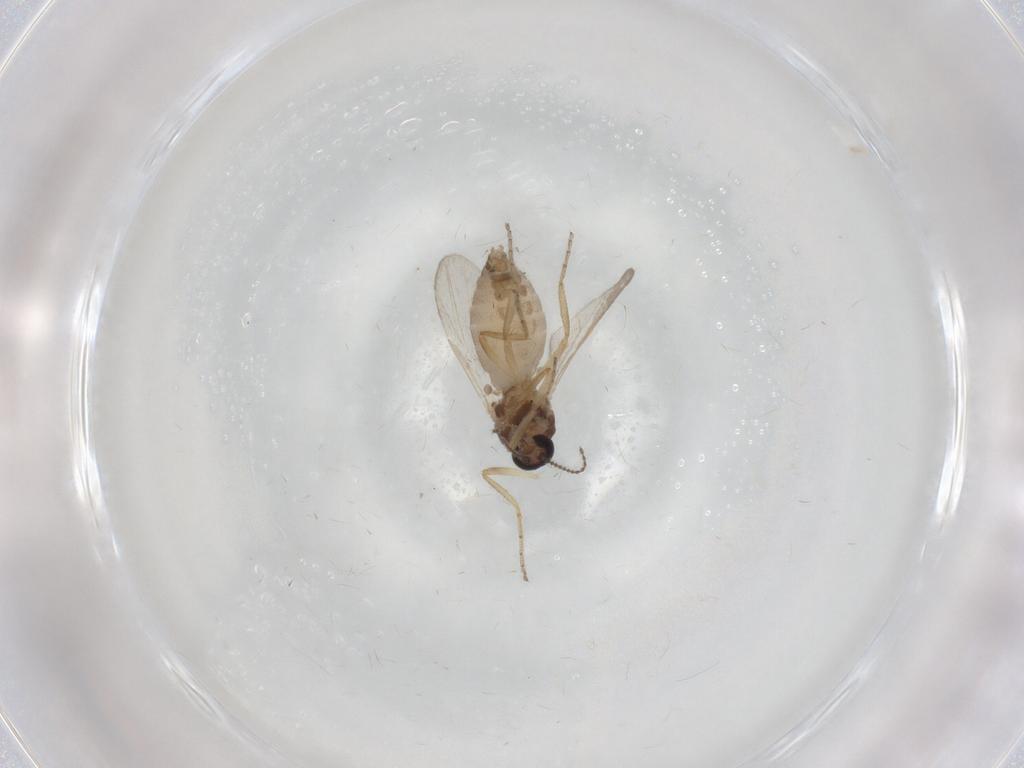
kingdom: Animalia
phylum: Arthropoda
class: Insecta
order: Diptera
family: Ceratopogonidae
